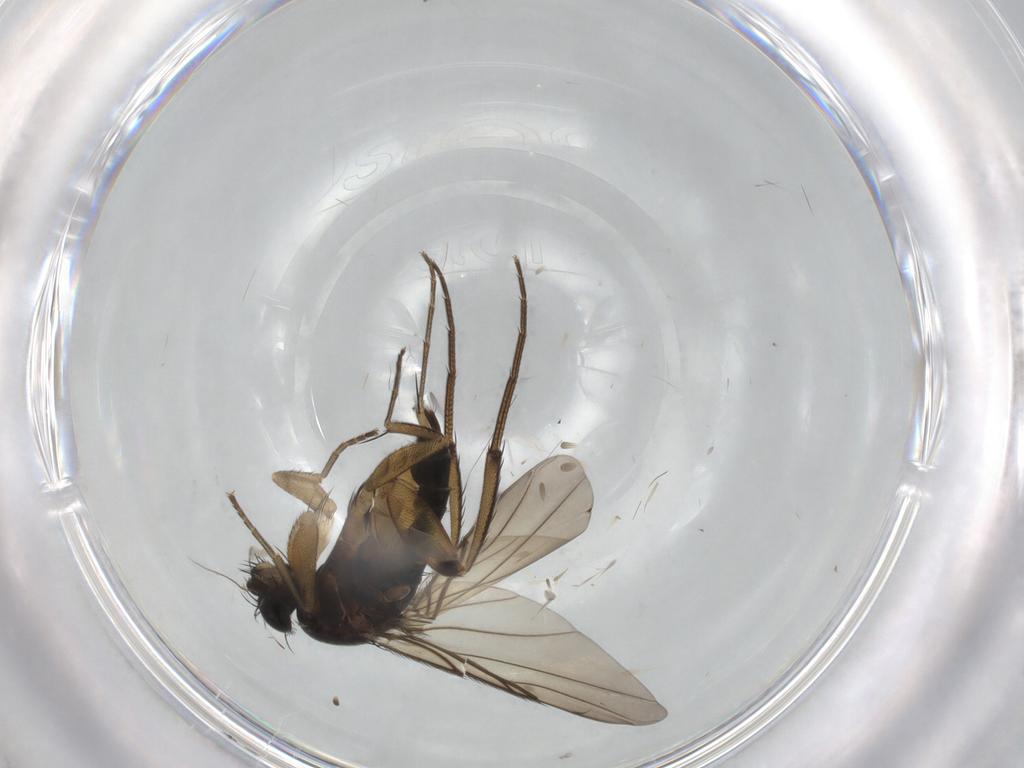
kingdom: Animalia
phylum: Arthropoda
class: Insecta
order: Diptera
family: Phoridae
